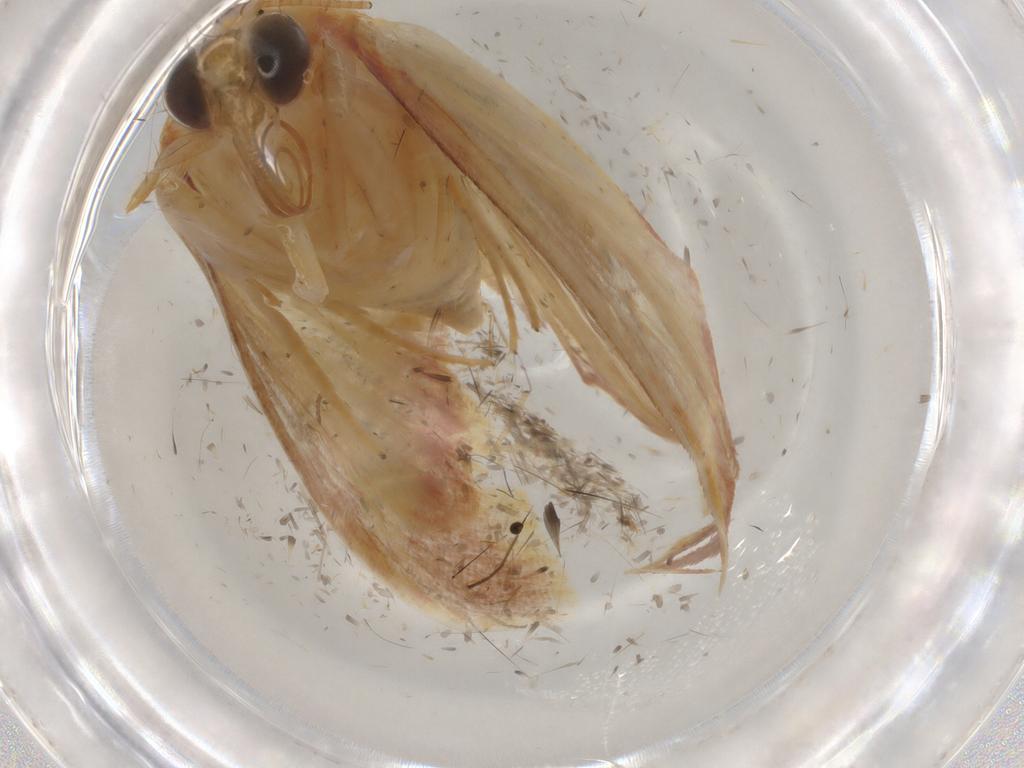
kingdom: Animalia
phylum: Arthropoda
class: Insecta
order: Lepidoptera
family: Crambidae
